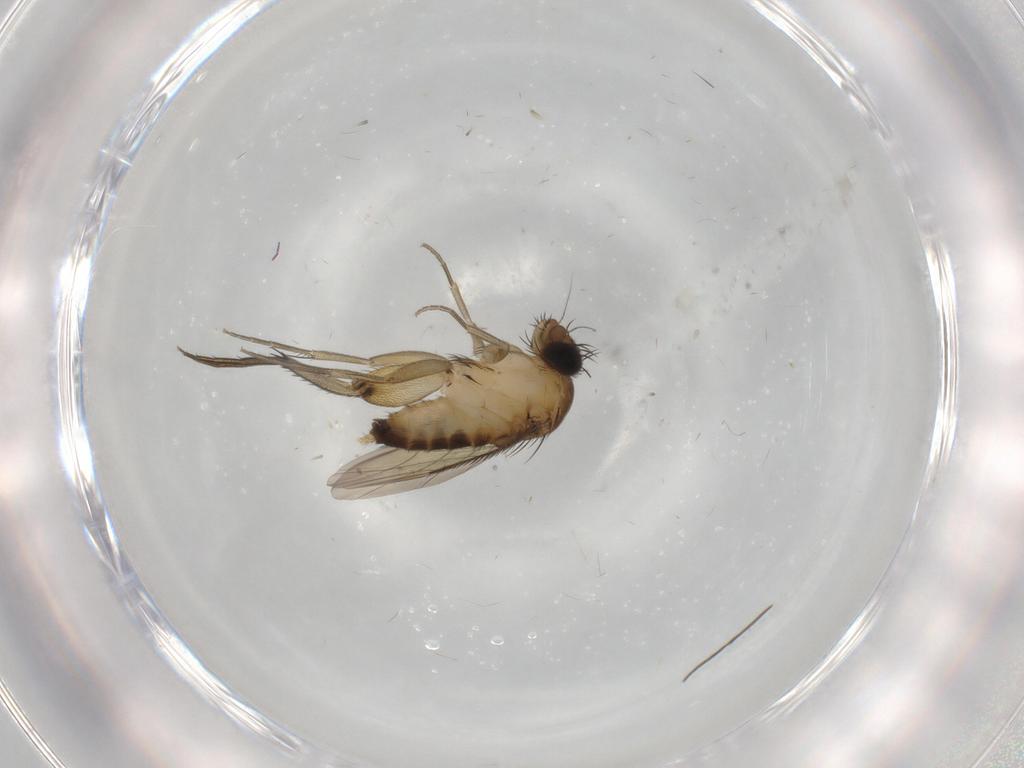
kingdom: Animalia
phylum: Arthropoda
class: Insecta
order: Diptera
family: Phoridae
